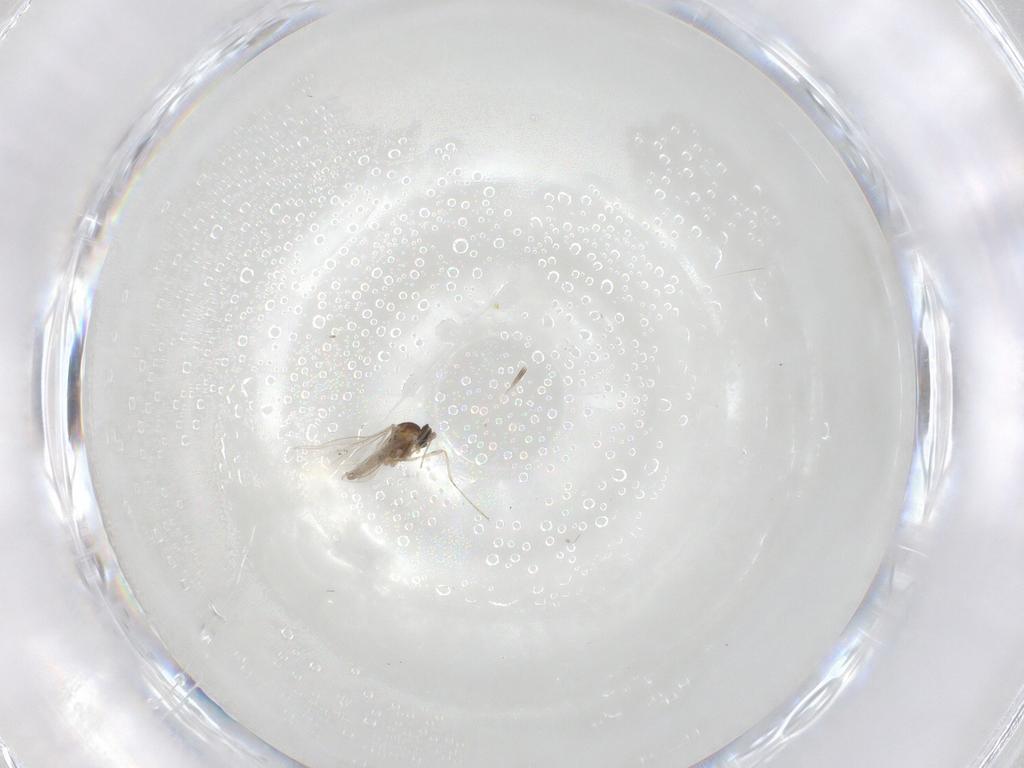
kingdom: Animalia
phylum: Arthropoda
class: Insecta
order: Diptera
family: Cecidomyiidae
